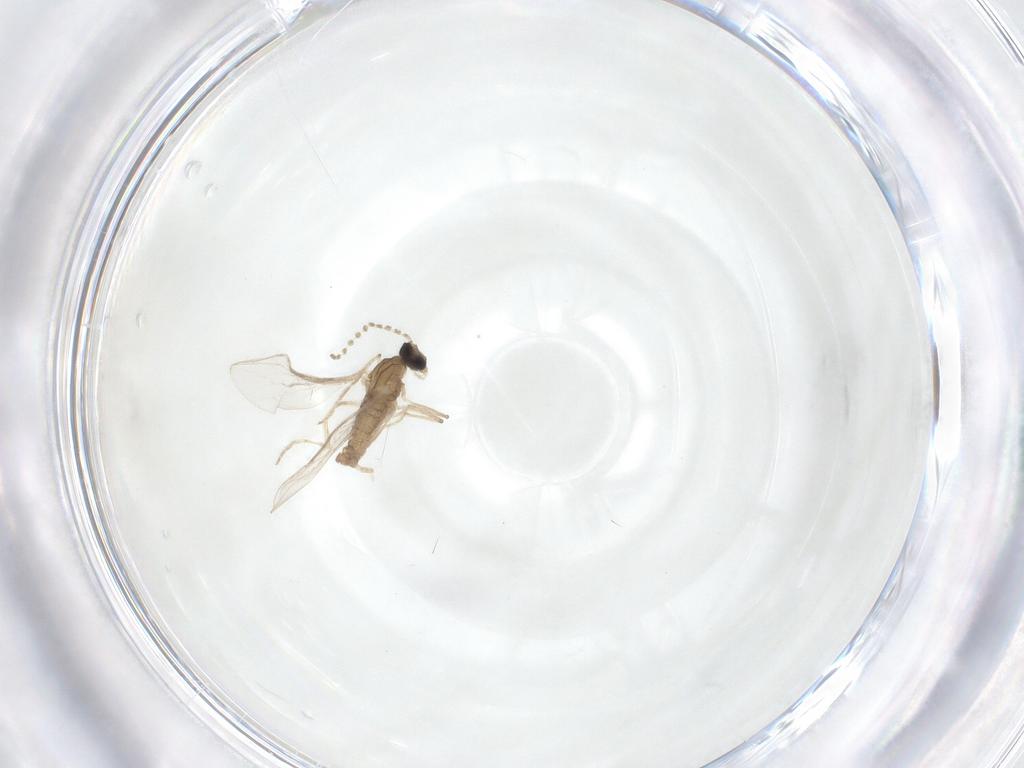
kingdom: Animalia
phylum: Arthropoda
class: Insecta
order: Diptera
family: Cecidomyiidae
